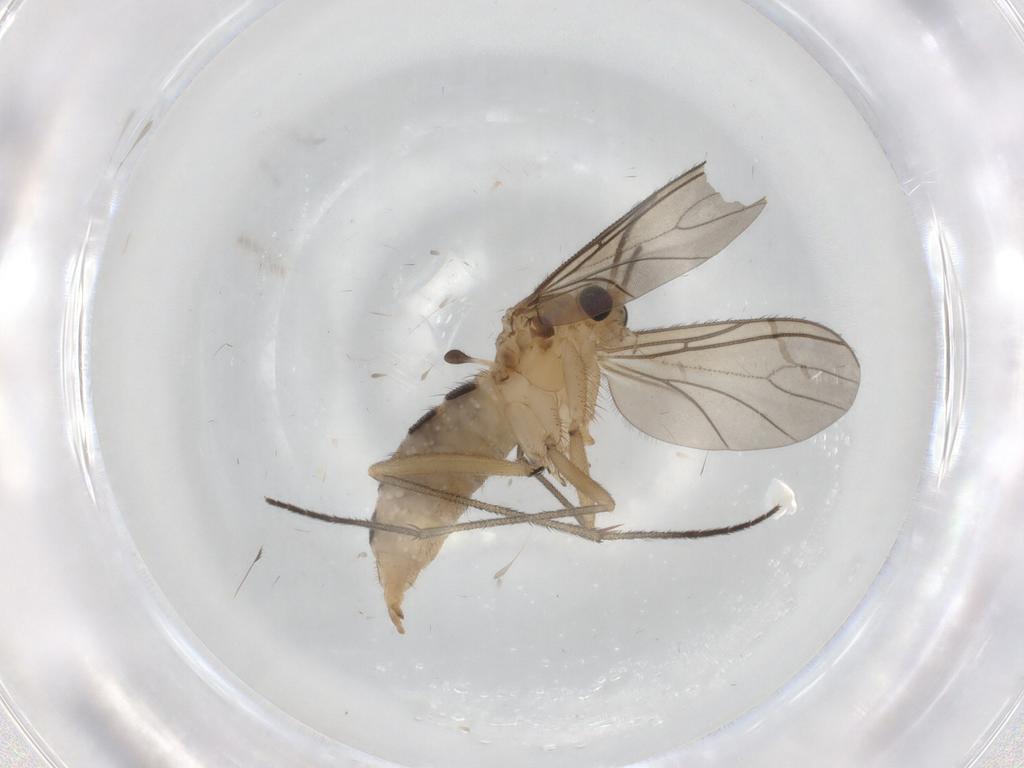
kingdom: Animalia
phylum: Arthropoda
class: Insecta
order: Diptera
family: Sciaridae
